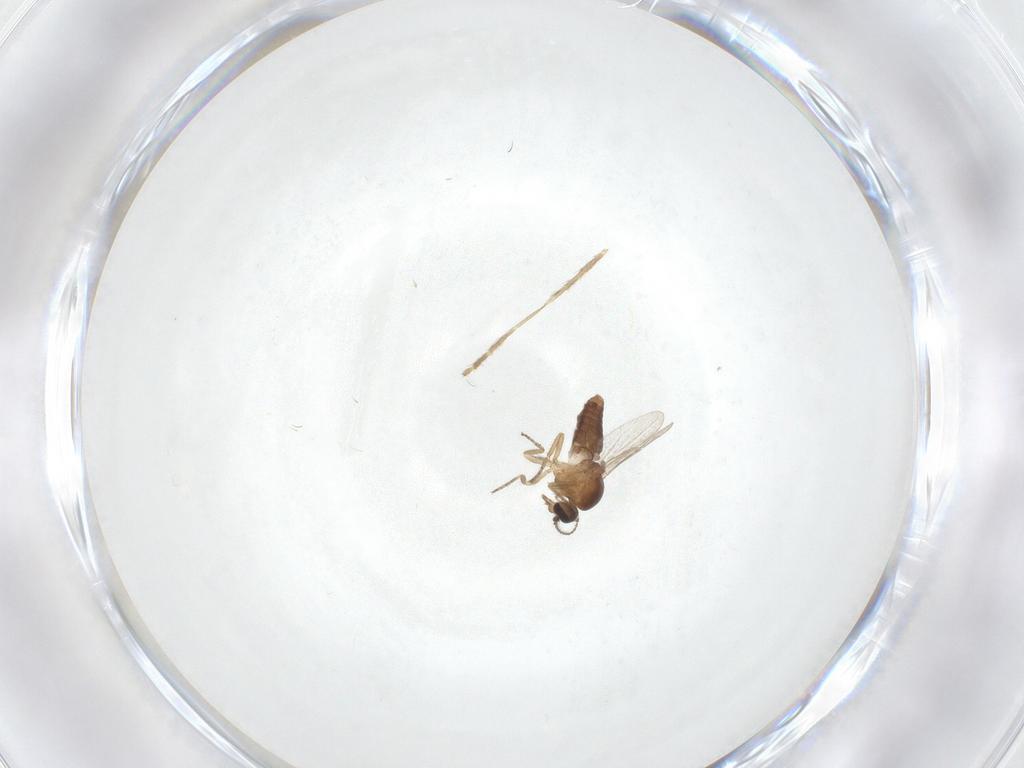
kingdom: Animalia
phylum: Arthropoda
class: Insecta
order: Diptera
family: Ceratopogonidae
